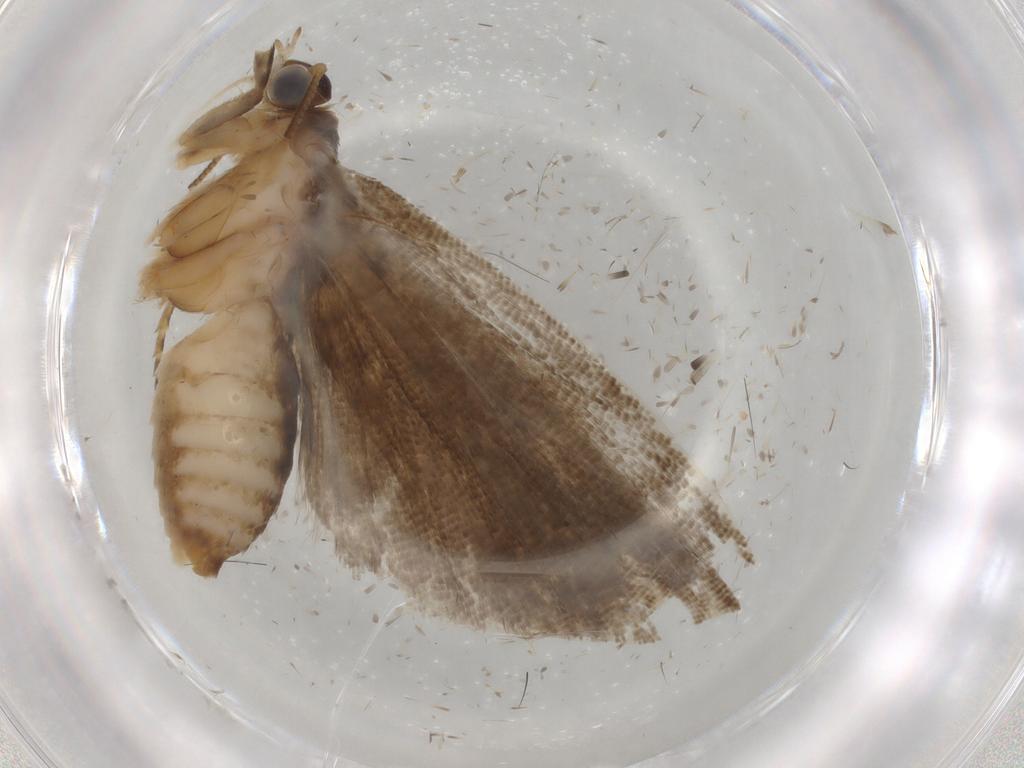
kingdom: Animalia
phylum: Arthropoda
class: Insecta
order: Lepidoptera
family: Tortricidae
